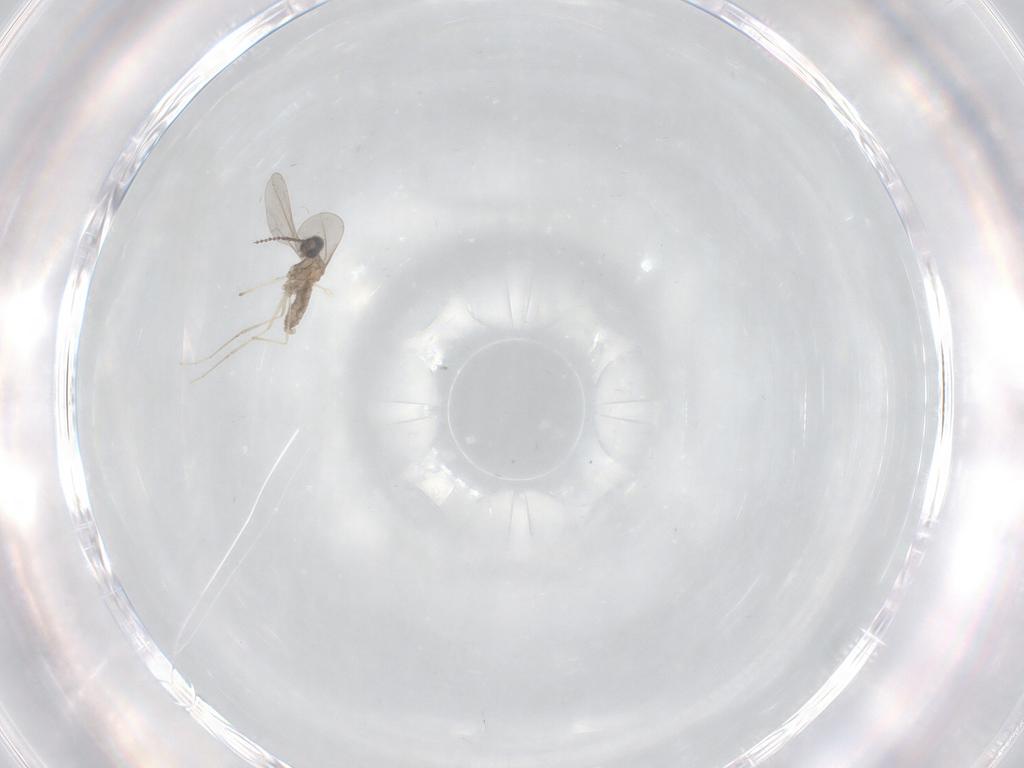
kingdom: Animalia
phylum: Arthropoda
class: Insecta
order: Diptera
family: Cecidomyiidae
